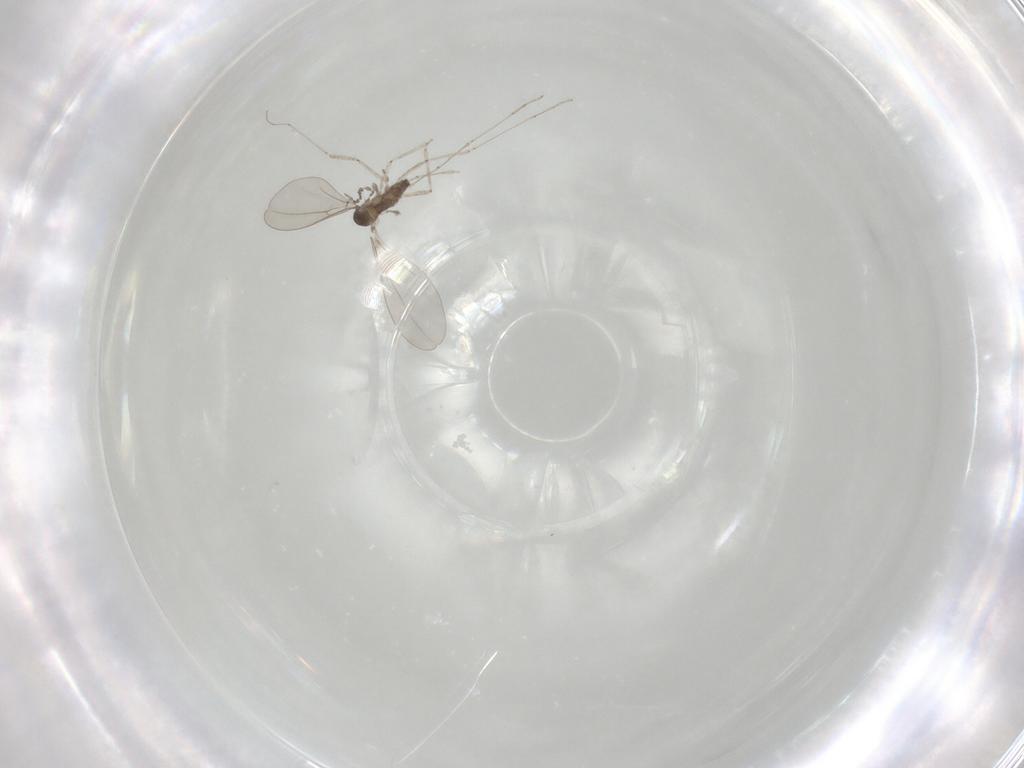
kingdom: Animalia
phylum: Arthropoda
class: Insecta
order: Diptera
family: Cecidomyiidae
